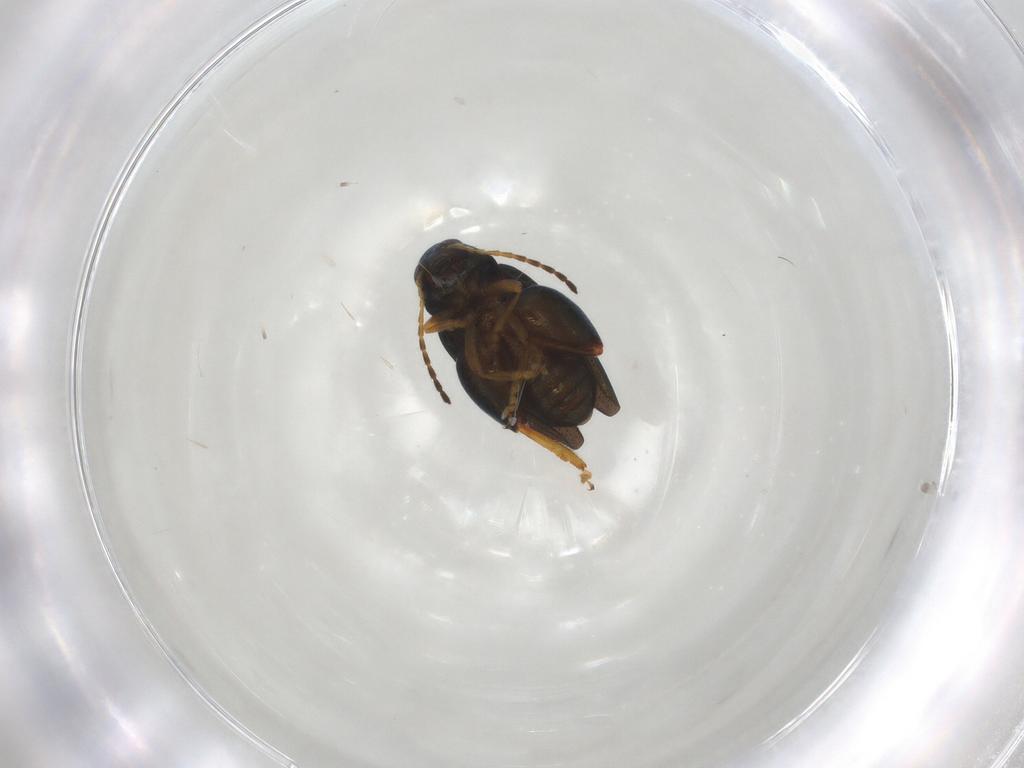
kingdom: Animalia
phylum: Arthropoda
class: Insecta
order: Coleoptera
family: Chrysomelidae
